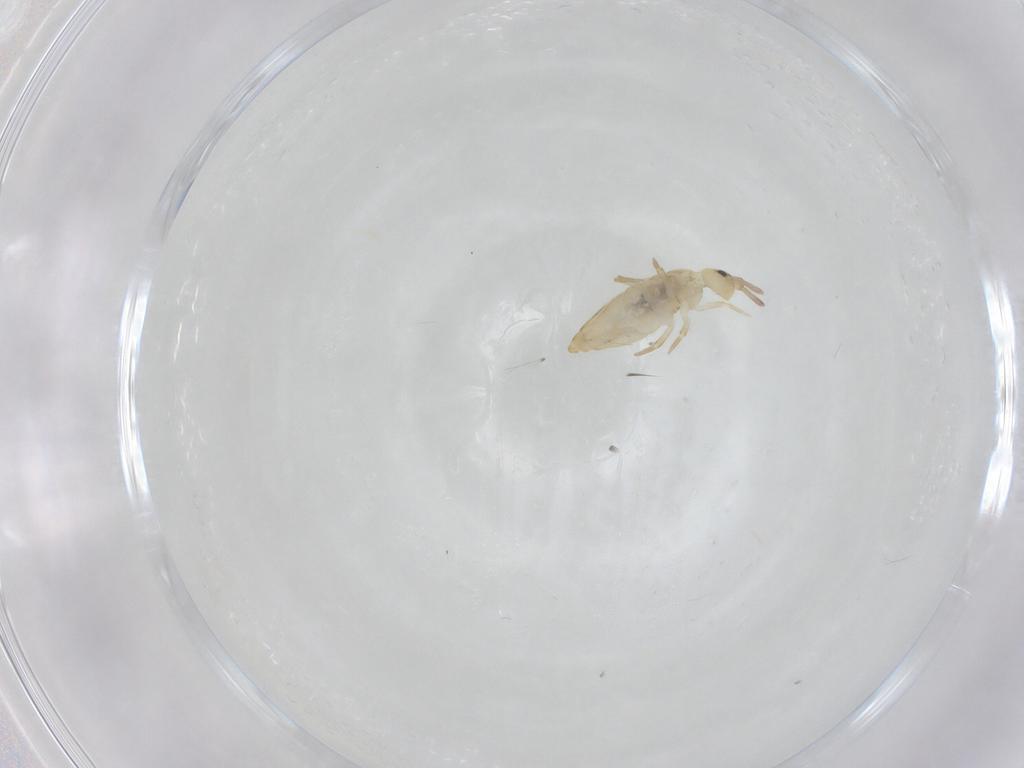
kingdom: Animalia
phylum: Arthropoda
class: Collembola
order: Entomobryomorpha
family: Entomobryidae
